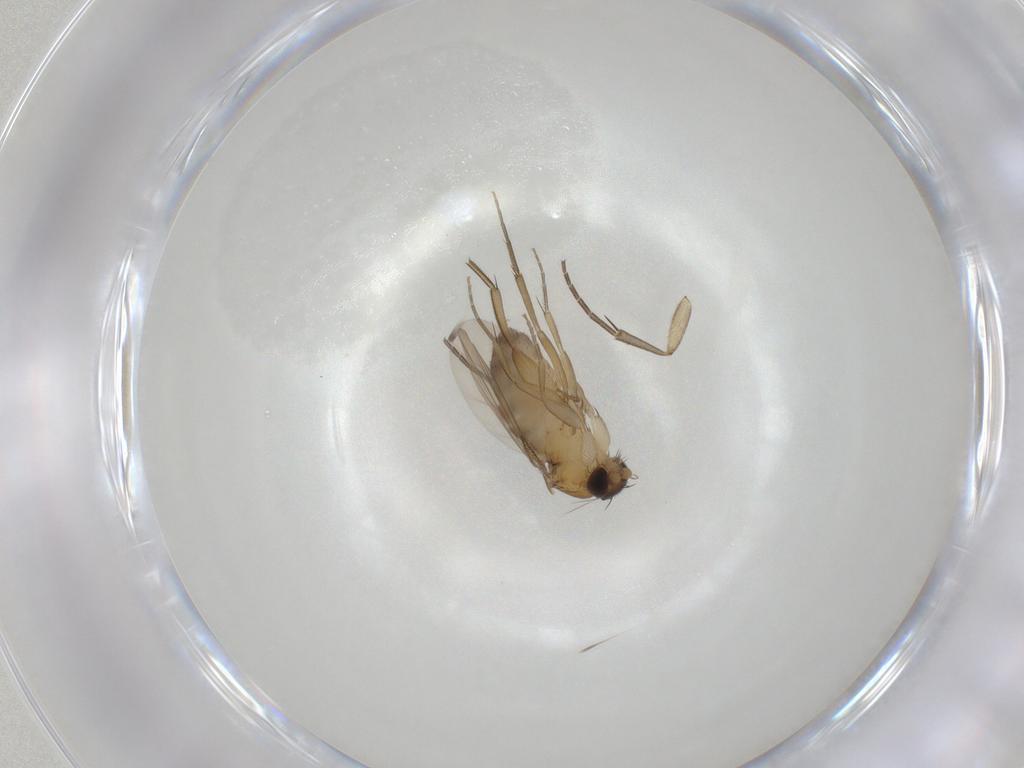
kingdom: Animalia
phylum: Arthropoda
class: Insecta
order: Diptera
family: Phoridae
